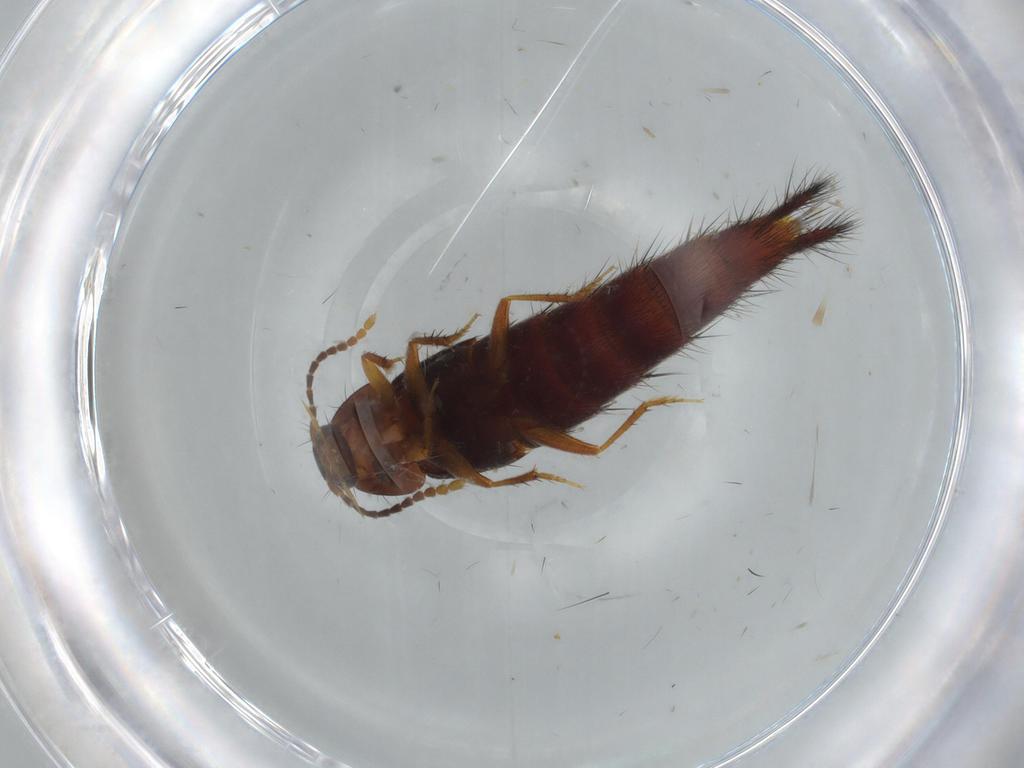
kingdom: Animalia
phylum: Arthropoda
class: Insecta
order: Coleoptera
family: Staphylinidae
